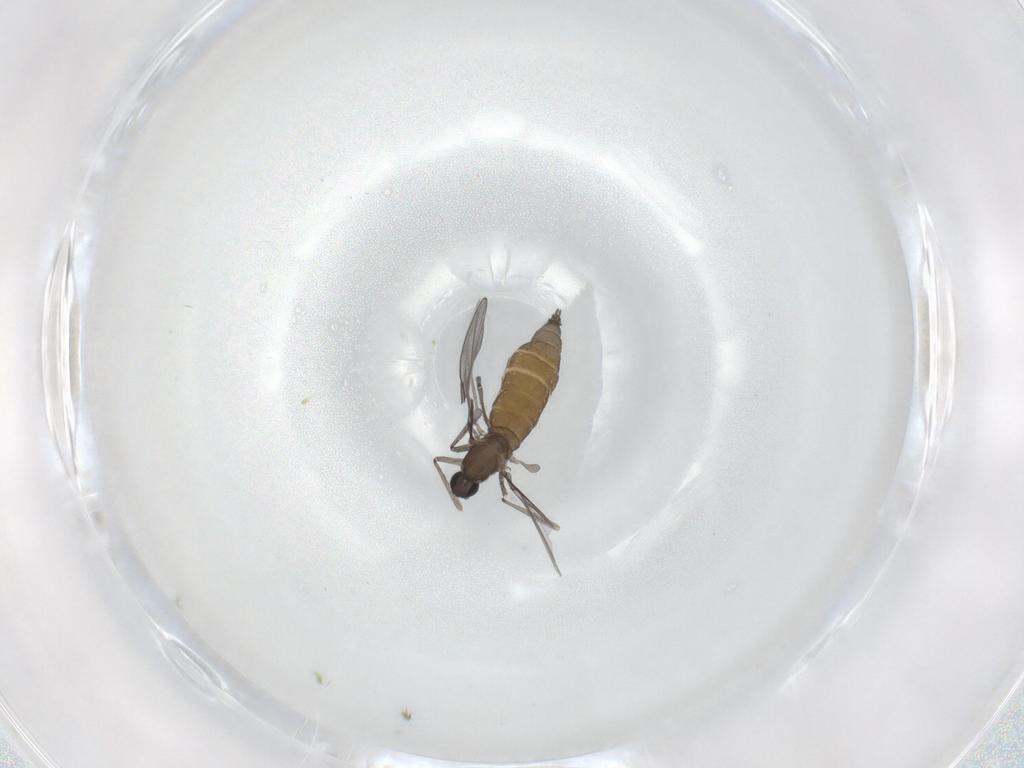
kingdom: Animalia
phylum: Arthropoda
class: Insecta
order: Diptera
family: Cecidomyiidae
